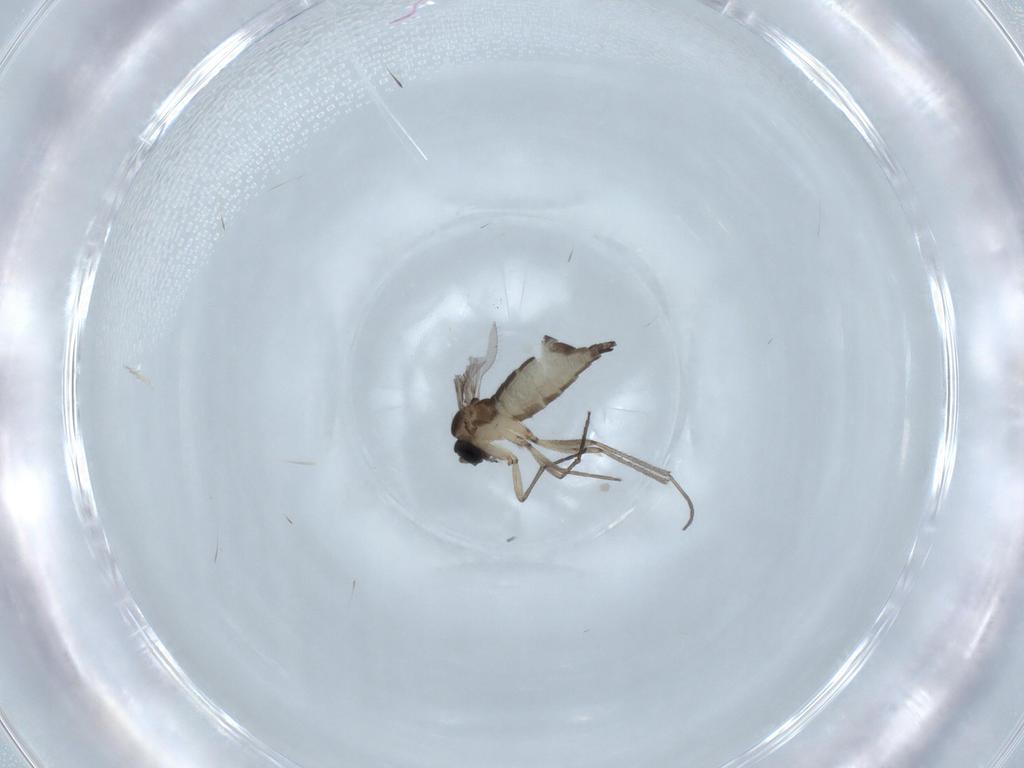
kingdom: Animalia
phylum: Arthropoda
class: Insecta
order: Diptera
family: Sciaridae
